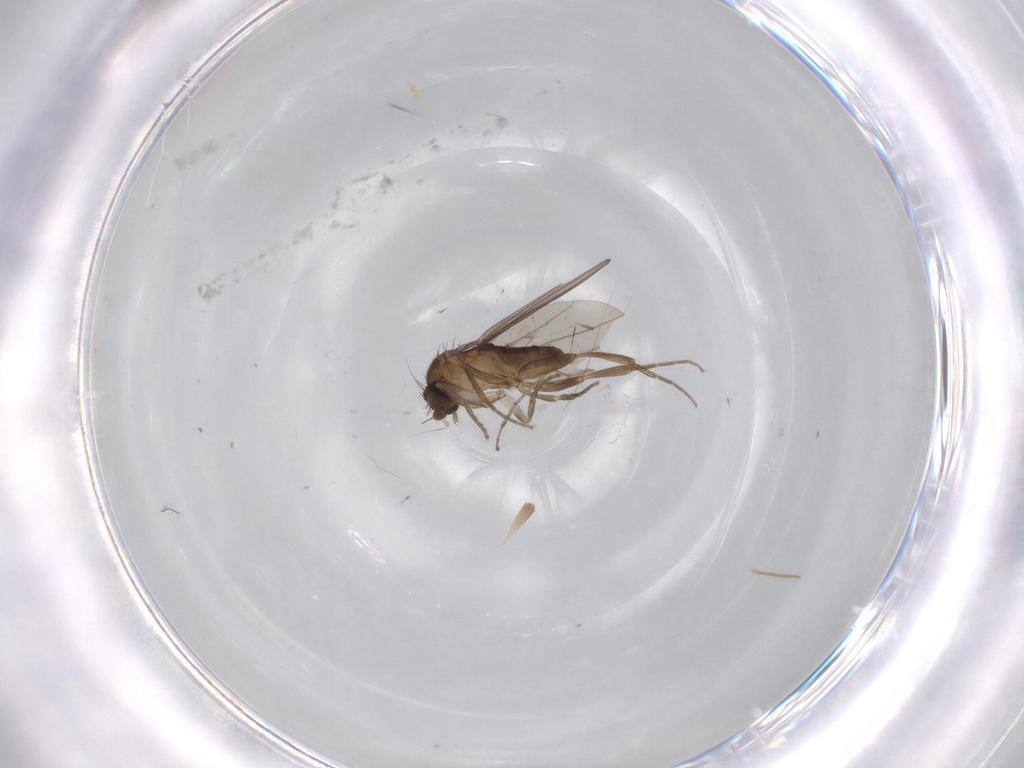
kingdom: Animalia
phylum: Arthropoda
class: Insecta
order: Diptera
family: Chironomidae
